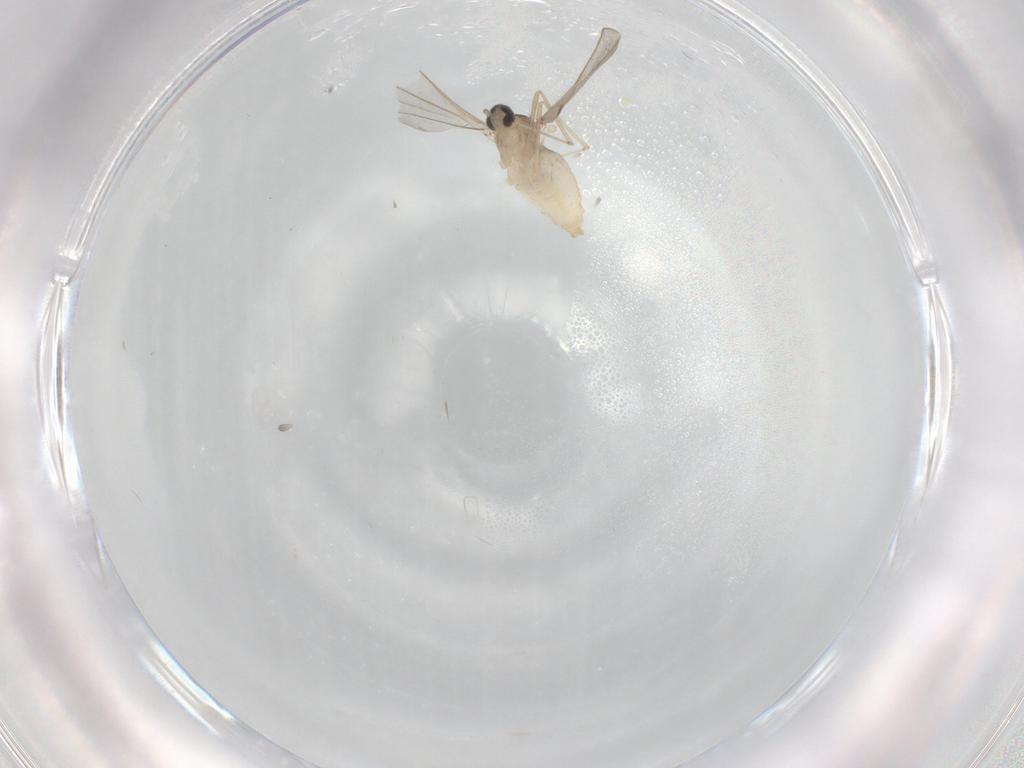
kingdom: Animalia
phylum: Arthropoda
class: Insecta
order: Diptera
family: Cecidomyiidae
